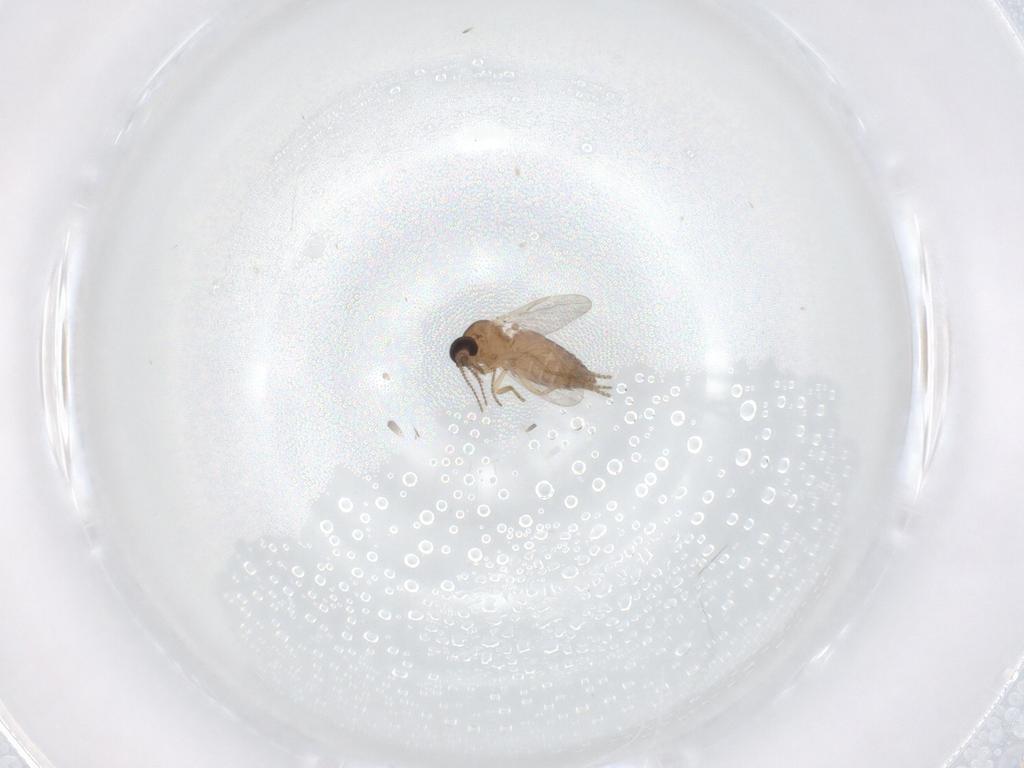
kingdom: Animalia
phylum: Arthropoda
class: Insecta
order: Diptera
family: Ceratopogonidae
